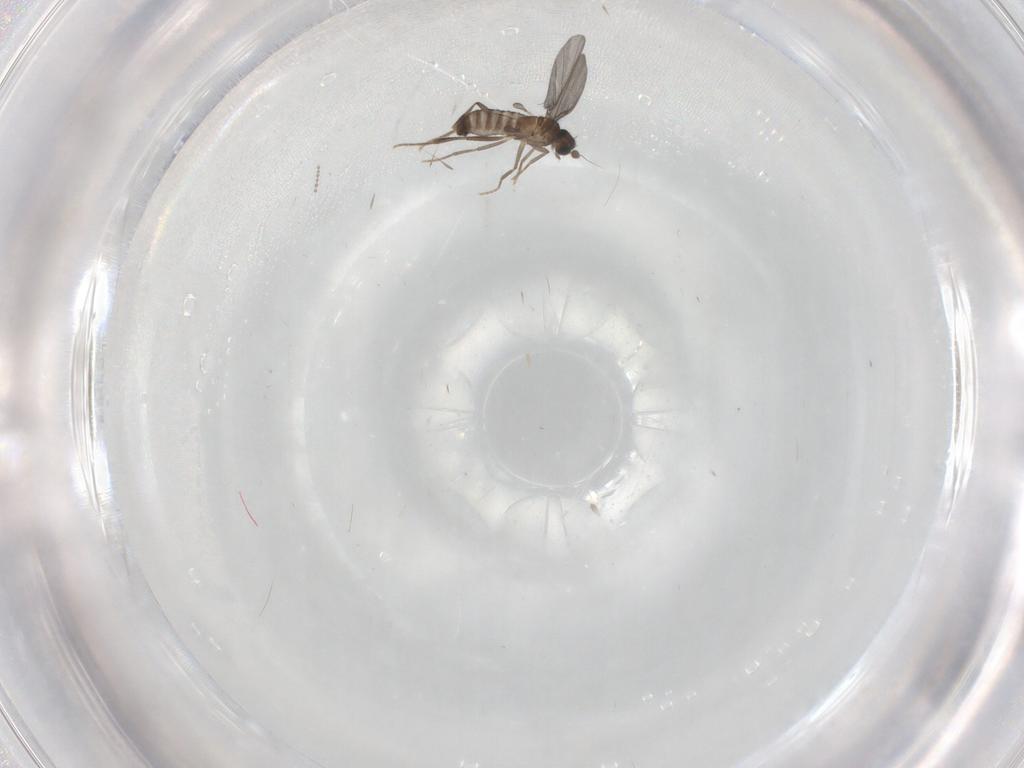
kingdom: Animalia
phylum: Arthropoda
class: Insecta
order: Diptera
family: Phoridae
